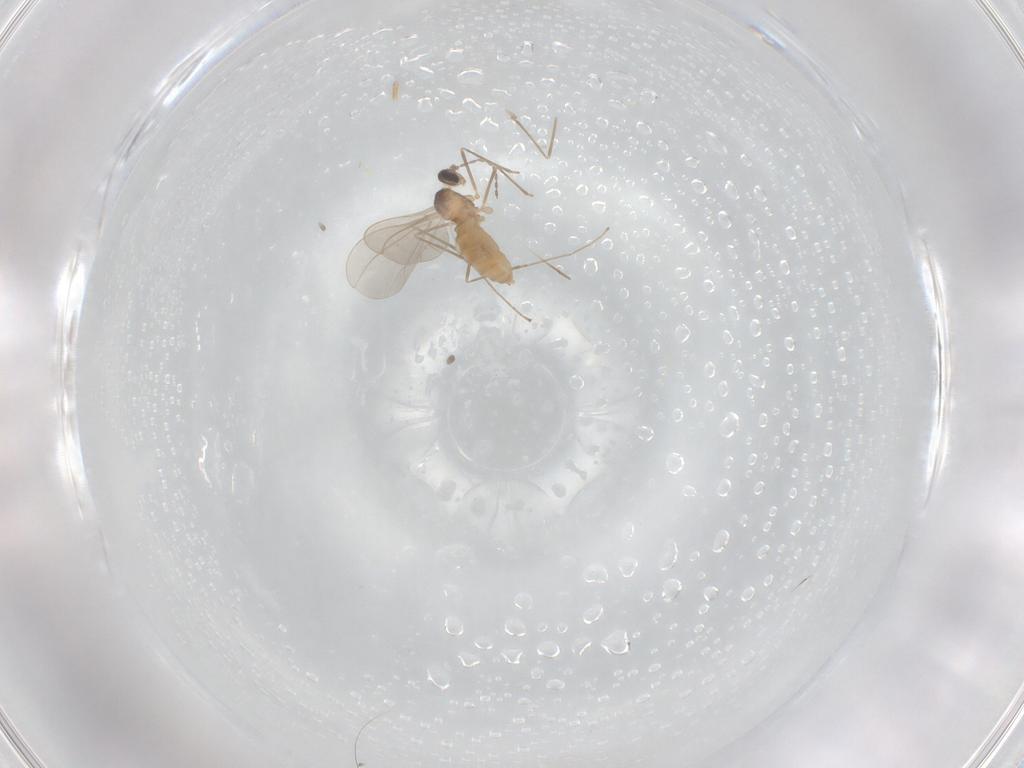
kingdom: Animalia
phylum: Arthropoda
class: Insecta
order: Diptera
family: Cecidomyiidae
